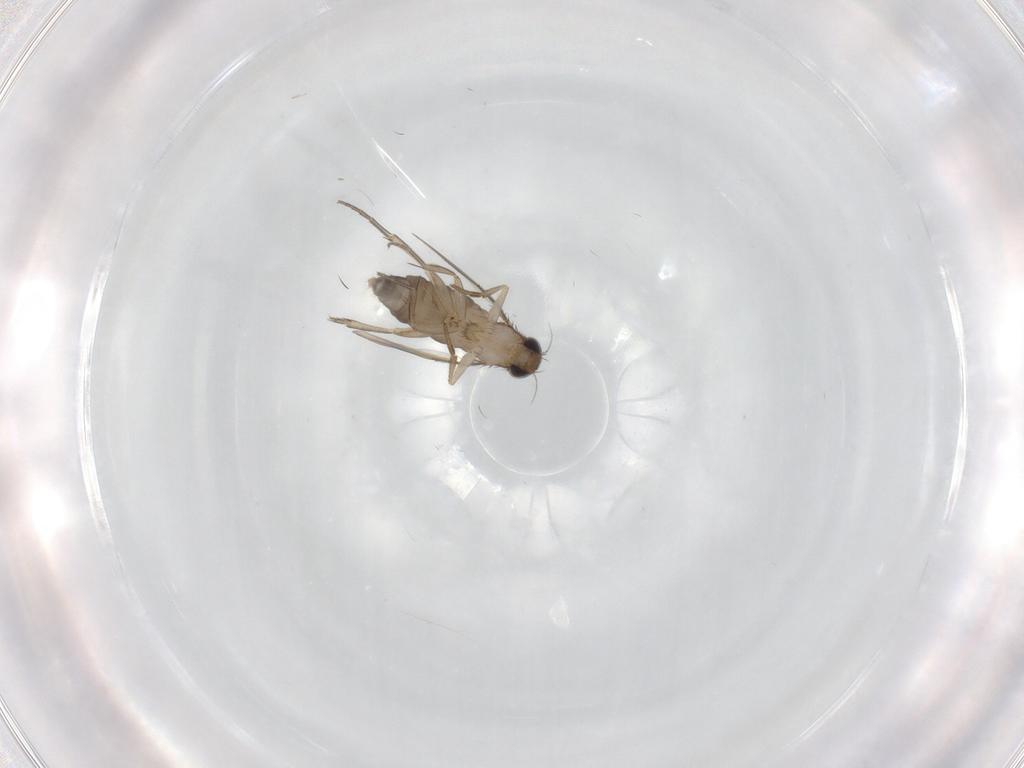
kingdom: Animalia
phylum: Arthropoda
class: Insecta
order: Diptera
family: Phoridae
